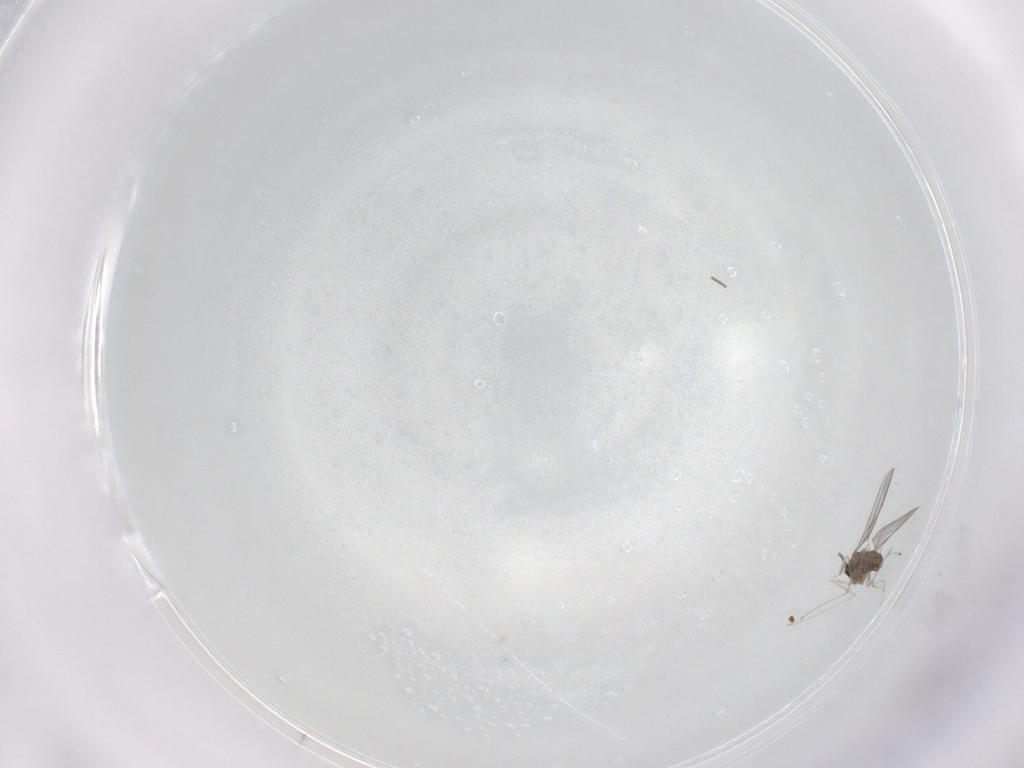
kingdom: Animalia
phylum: Arthropoda
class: Insecta
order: Diptera
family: Cecidomyiidae
